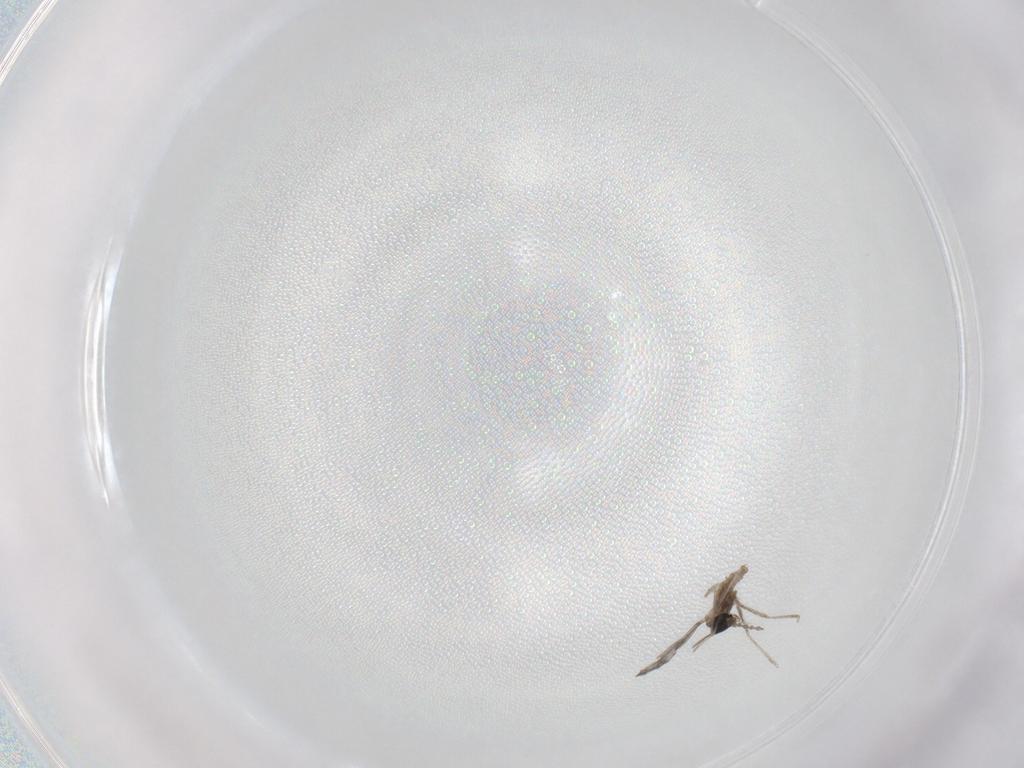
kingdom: Animalia
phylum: Arthropoda
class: Insecta
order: Diptera
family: Cecidomyiidae
